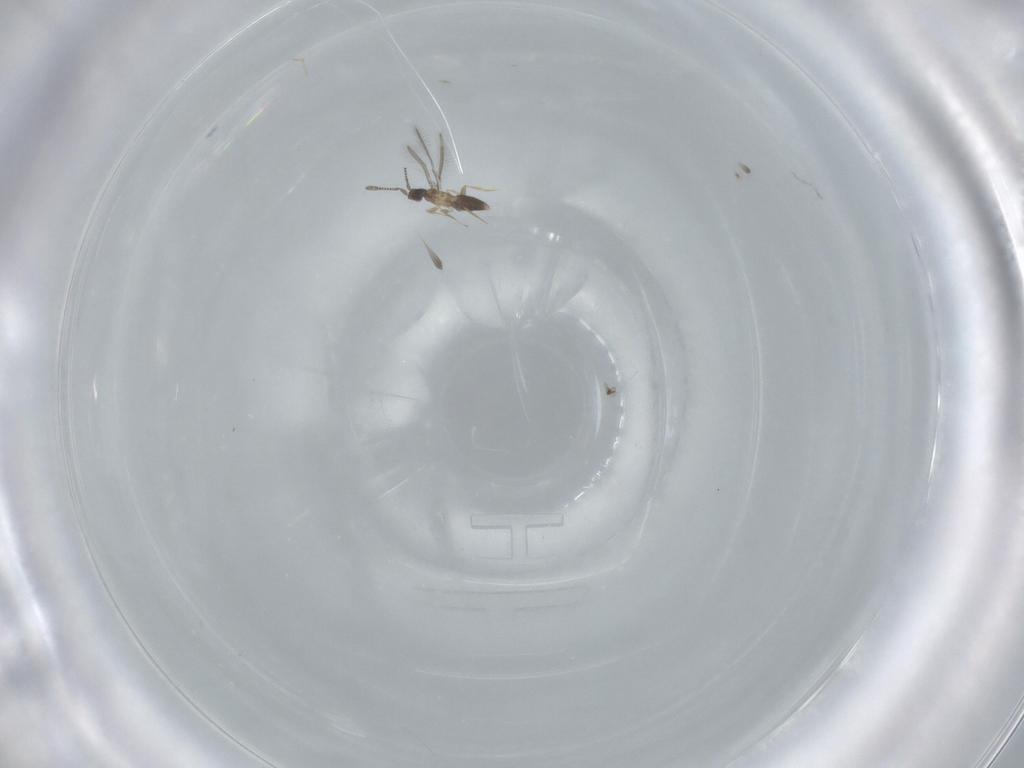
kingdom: Animalia
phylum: Arthropoda
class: Insecta
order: Hymenoptera
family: Mymaridae
